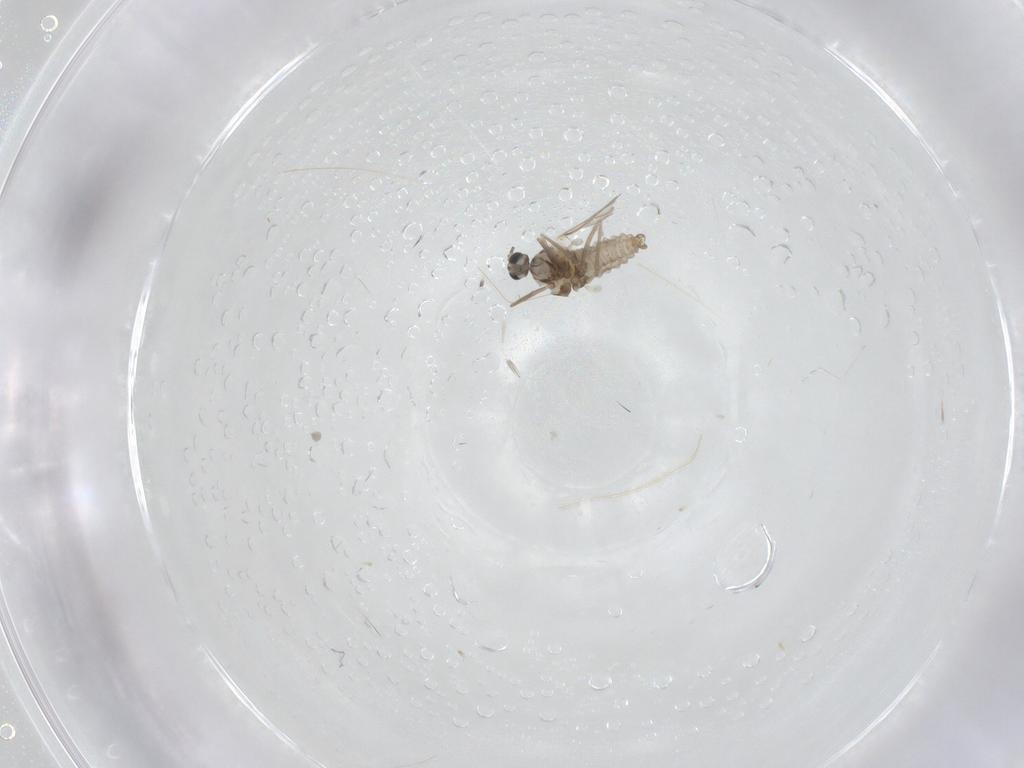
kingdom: Animalia
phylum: Arthropoda
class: Insecta
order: Diptera
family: Cecidomyiidae
